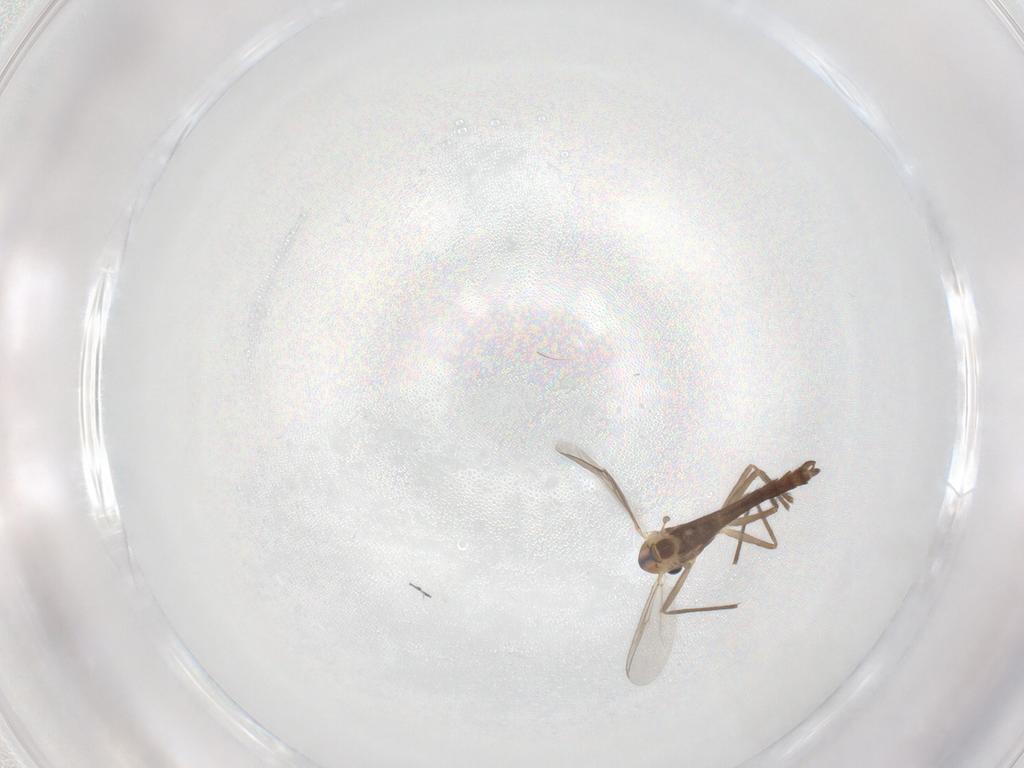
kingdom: Animalia
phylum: Arthropoda
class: Insecta
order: Diptera
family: Chironomidae
